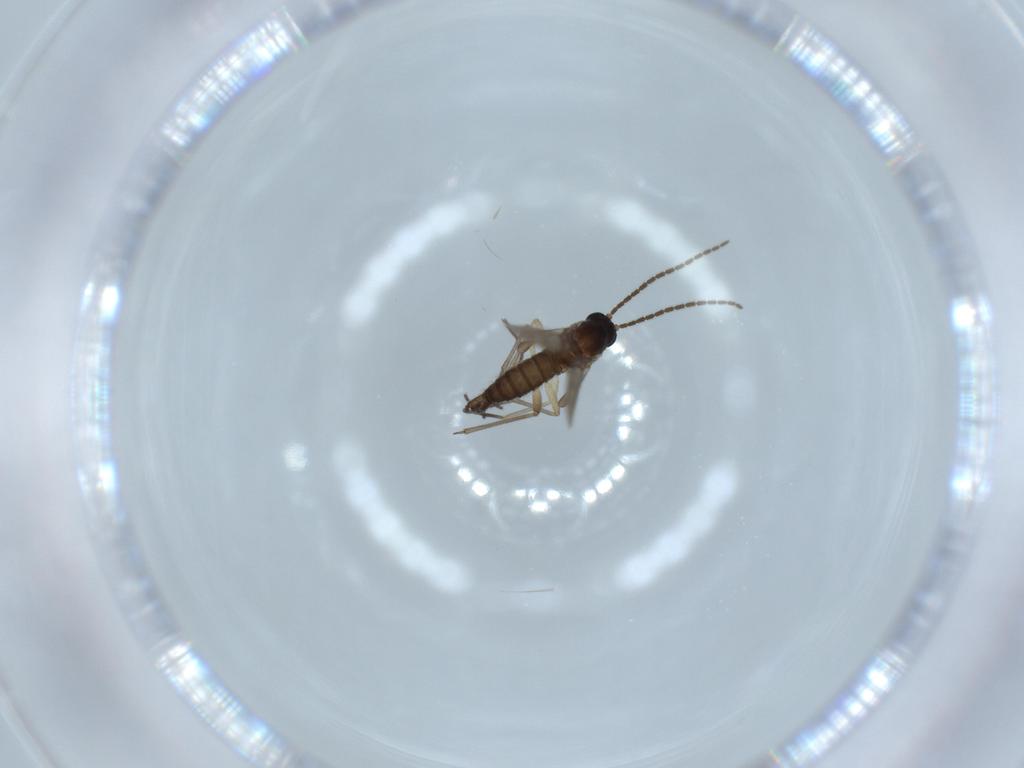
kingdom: Animalia
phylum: Arthropoda
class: Insecta
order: Diptera
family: Sciaridae
